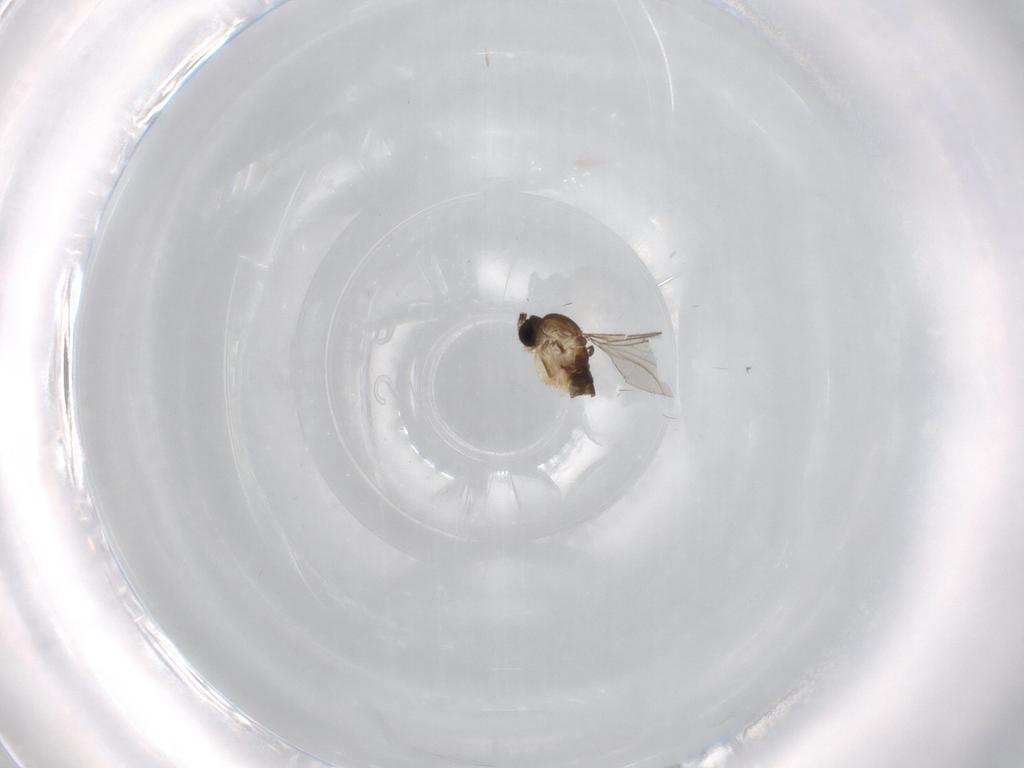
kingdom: Animalia
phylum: Arthropoda
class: Insecta
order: Diptera
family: Sciaridae
